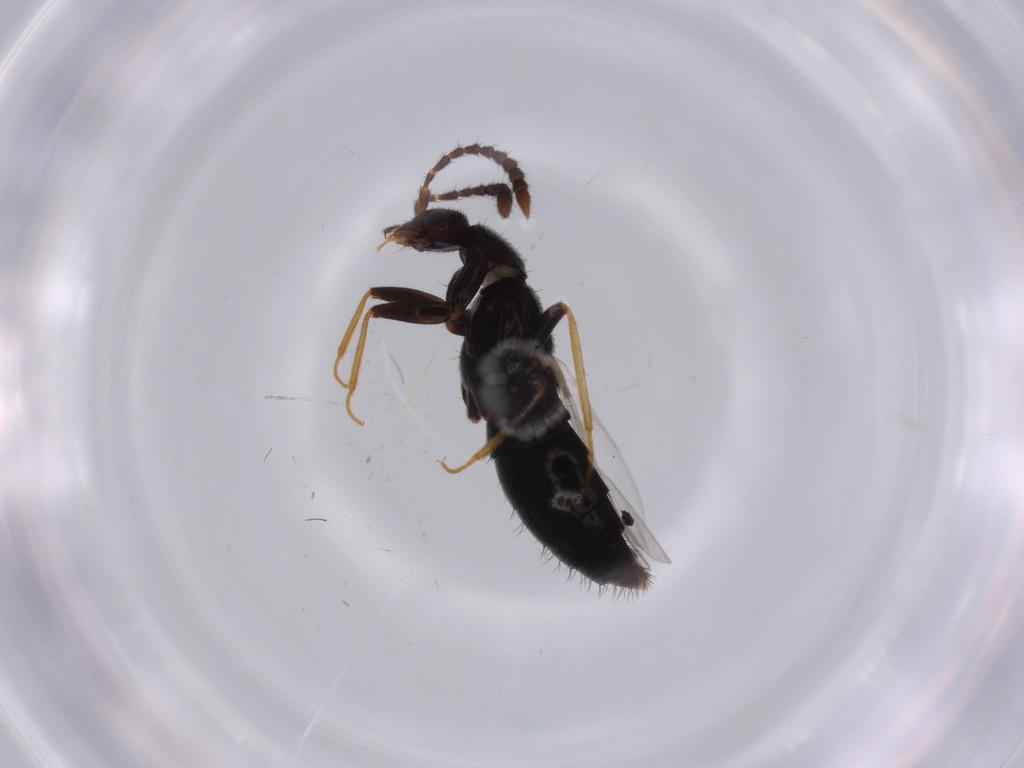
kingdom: Animalia
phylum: Arthropoda
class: Insecta
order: Coleoptera
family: Staphylinidae
